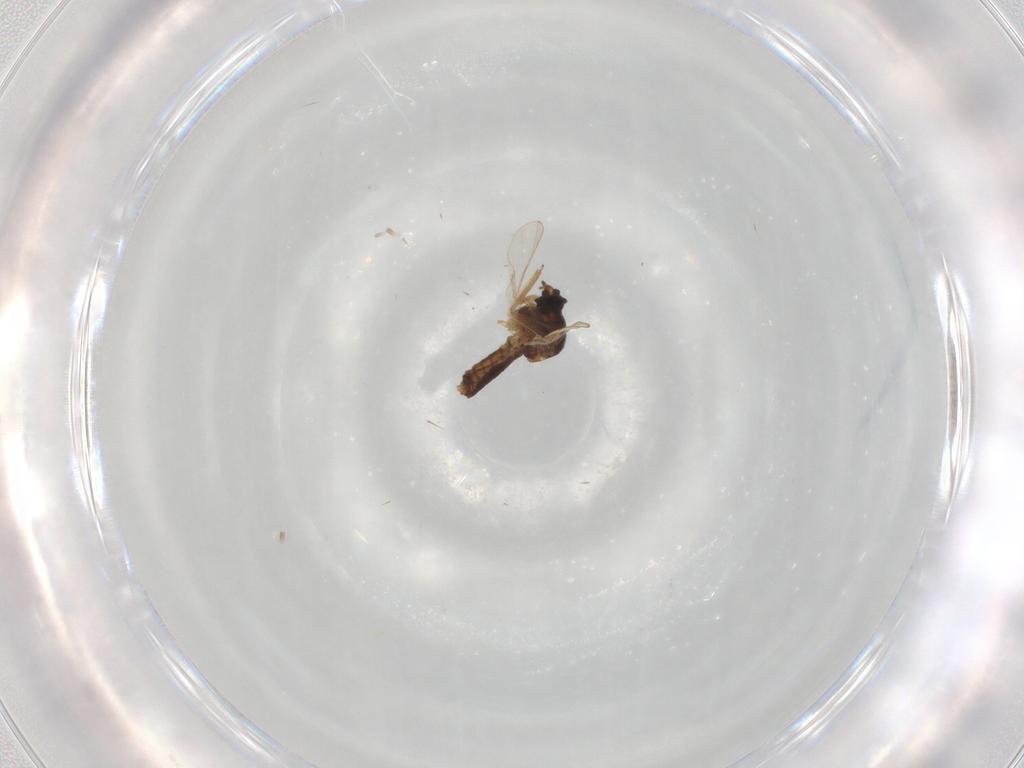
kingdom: Animalia
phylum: Arthropoda
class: Insecta
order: Diptera
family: Ceratopogonidae
